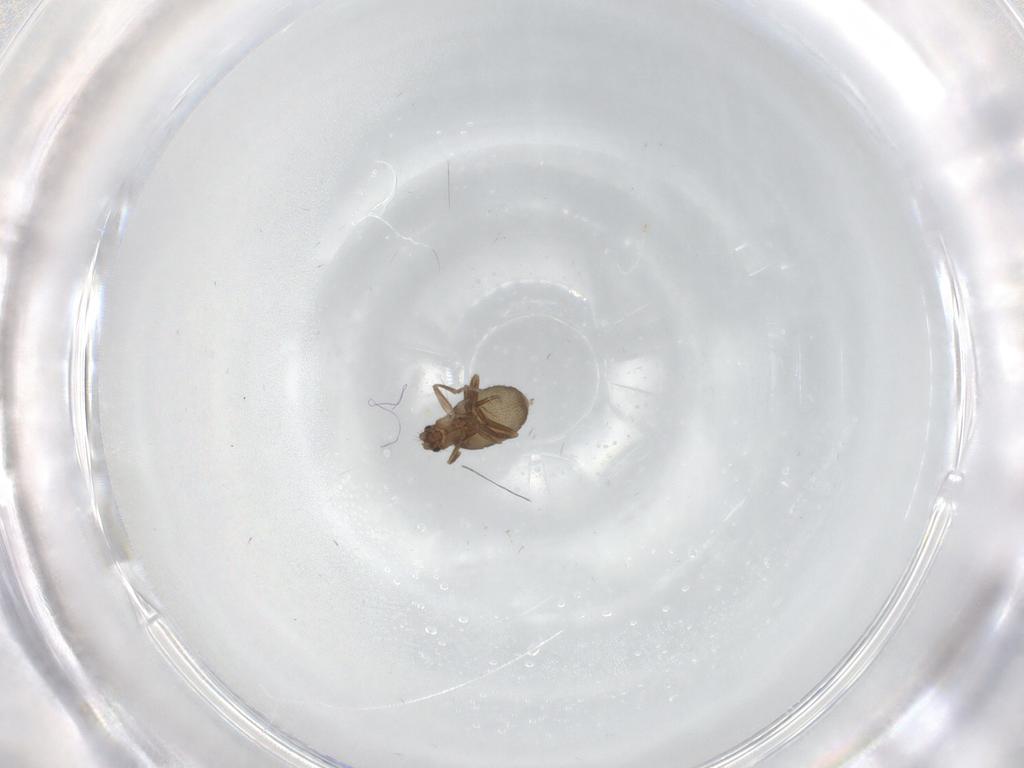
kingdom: Animalia
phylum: Arthropoda
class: Insecta
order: Diptera
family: Phoridae
